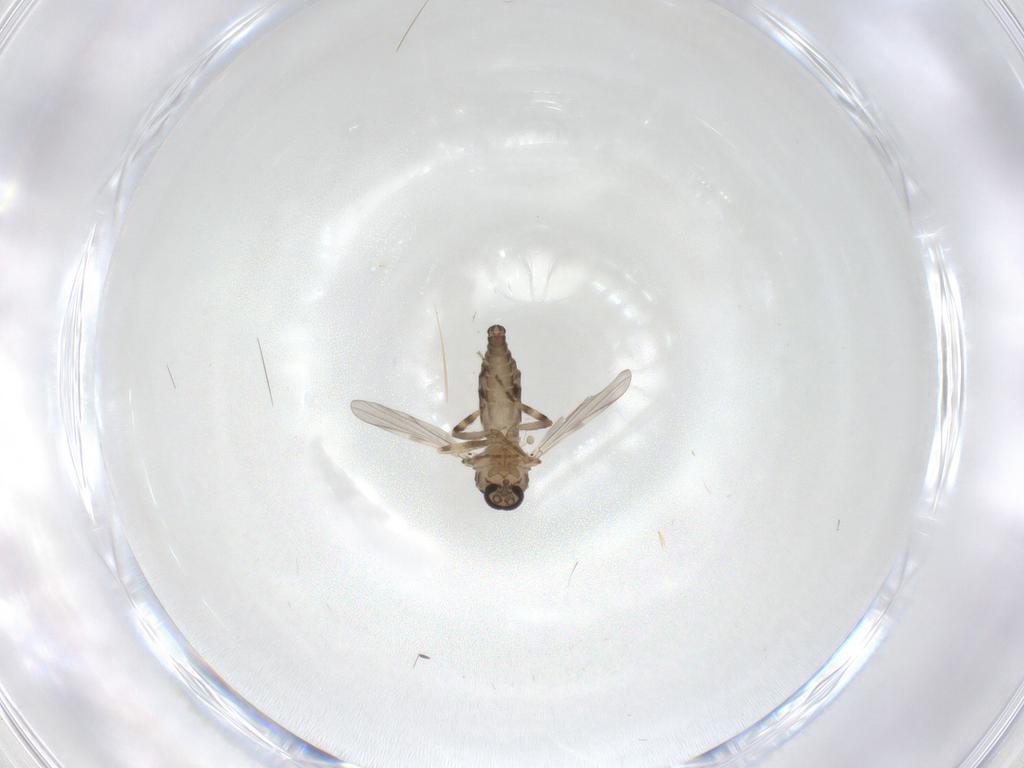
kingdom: Animalia
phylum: Arthropoda
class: Insecta
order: Diptera
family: Ceratopogonidae
